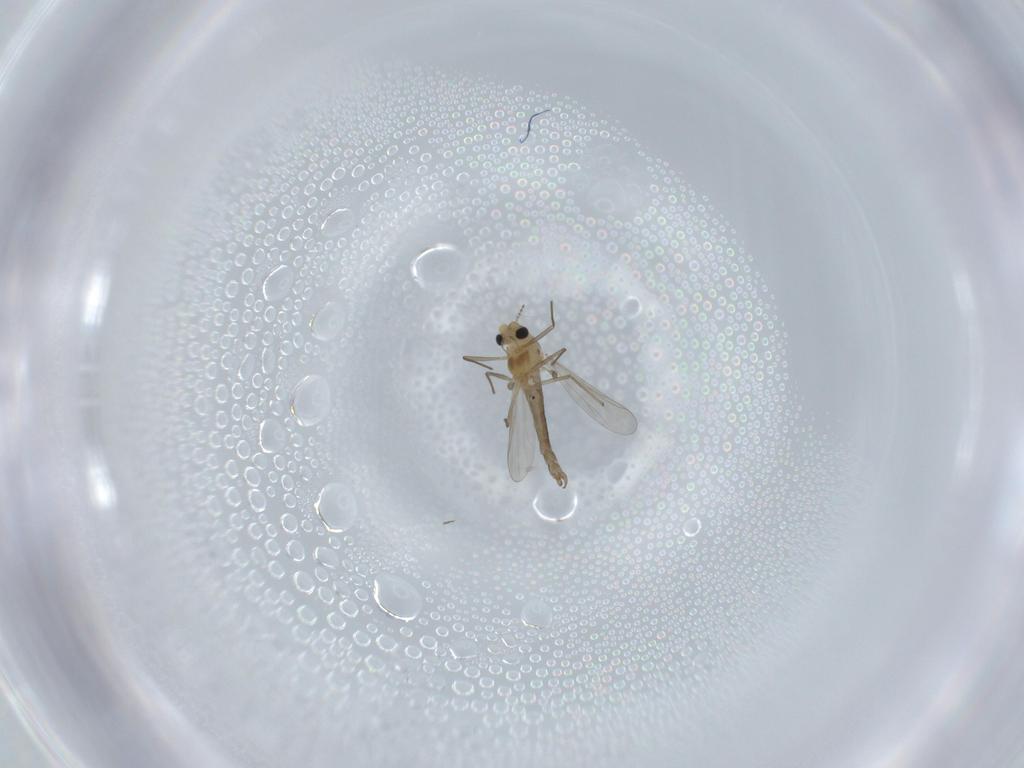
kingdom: Animalia
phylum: Arthropoda
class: Insecta
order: Diptera
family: Chironomidae
